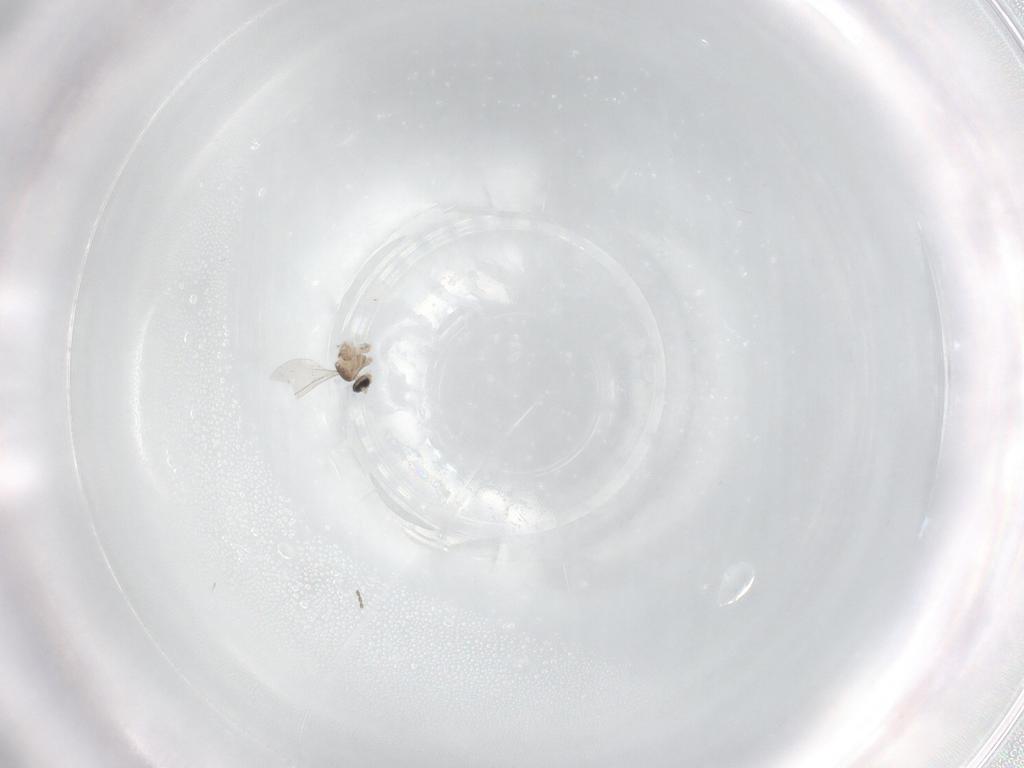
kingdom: Animalia
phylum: Arthropoda
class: Insecta
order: Diptera
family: Cecidomyiidae
